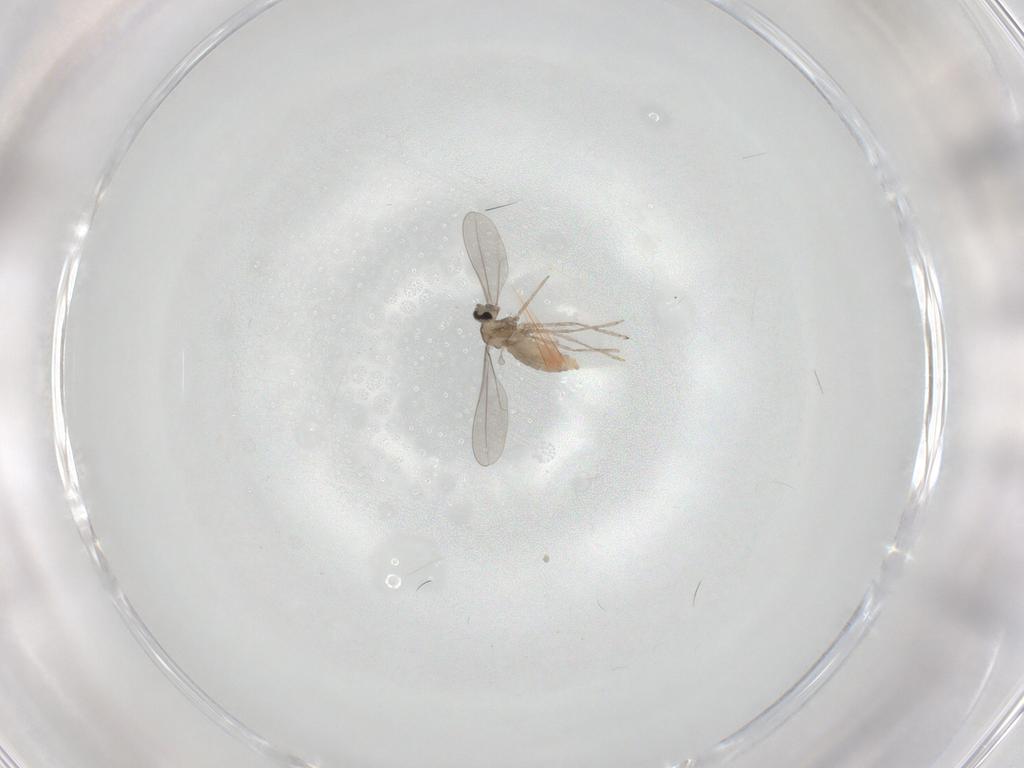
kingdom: Animalia
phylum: Arthropoda
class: Insecta
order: Diptera
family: Cecidomyiidae
